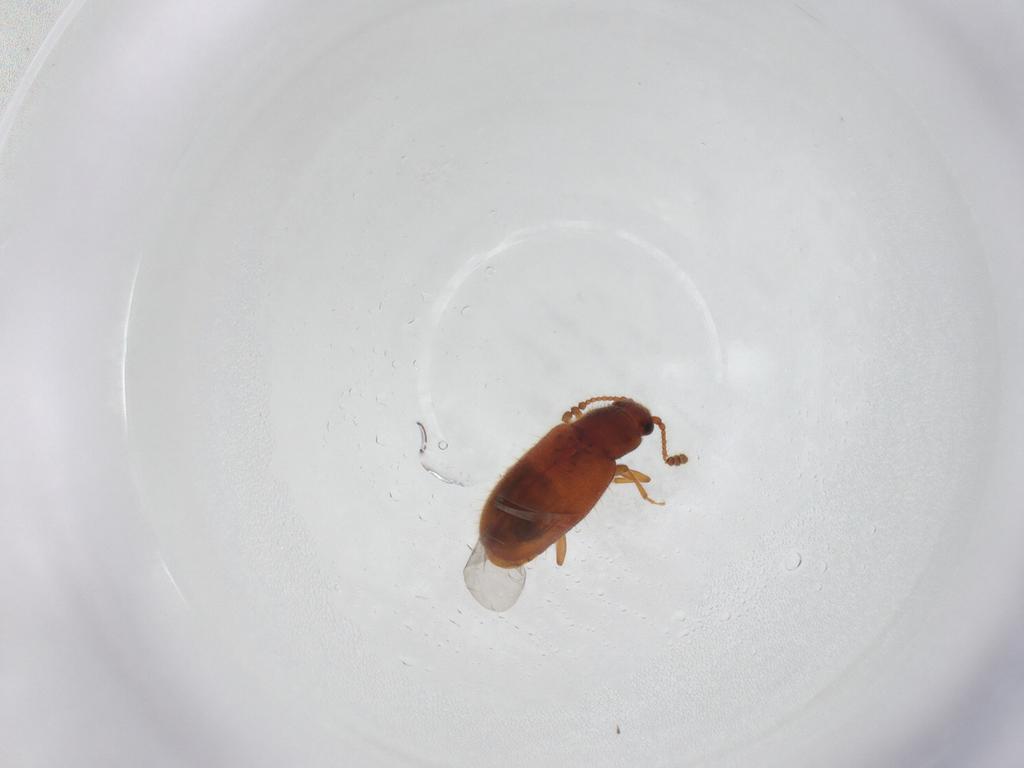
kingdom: Animalia
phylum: Arthropoda
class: Insecta
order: Coleoptera
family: Cryptophagidae
